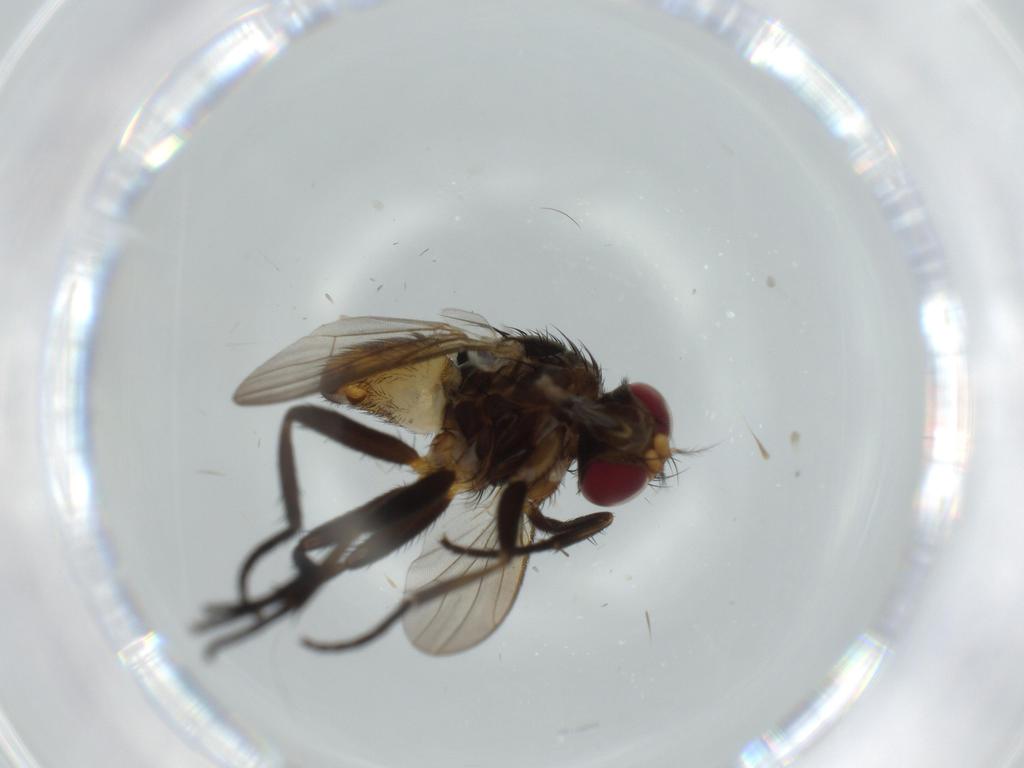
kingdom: Animalia
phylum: Arthropoda
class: Insecta
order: Diptera
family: Anthomyiidae
